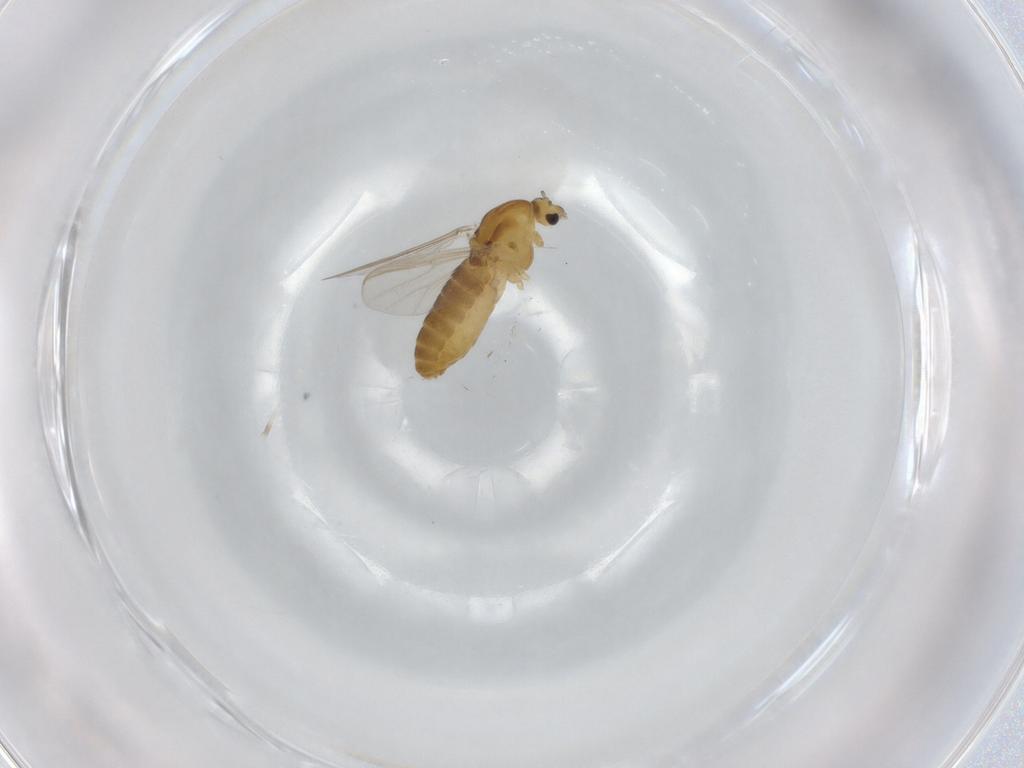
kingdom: Animalia
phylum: Arthropoda
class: Insecta
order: Diptera
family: Chironomidae
